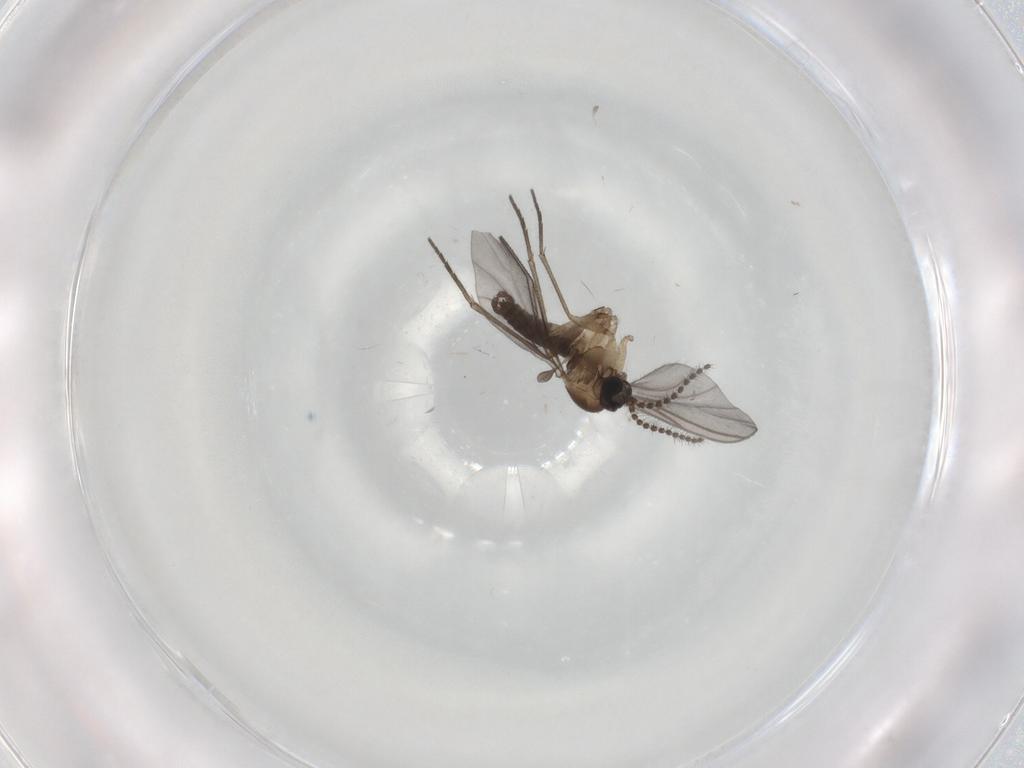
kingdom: Animalia
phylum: Arthropoda
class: Insecta
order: Diptera
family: Sciaridae
